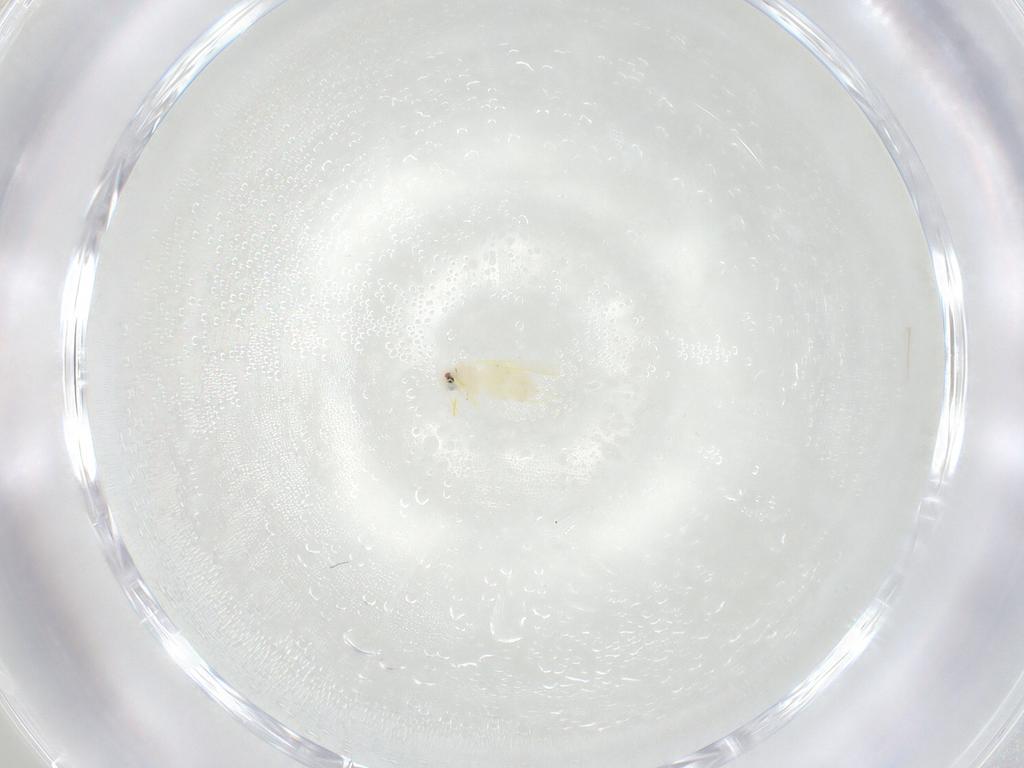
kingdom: Animalia
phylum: Arthropoda
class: Insecta
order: Hemiptera
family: Aleyrodidae
